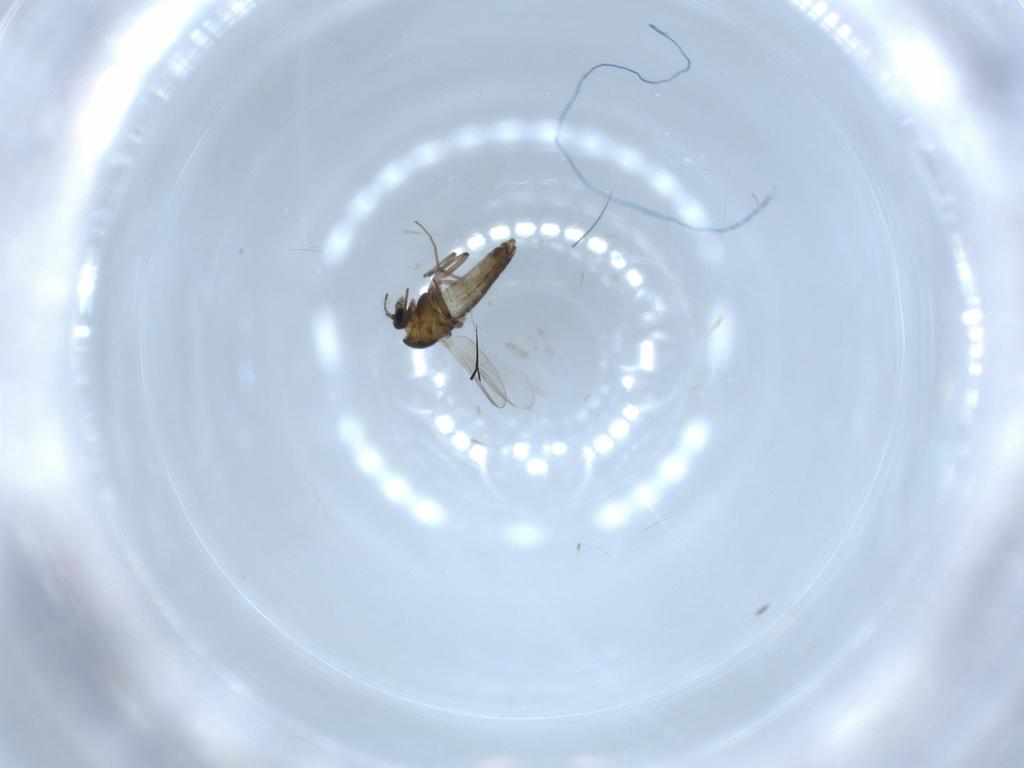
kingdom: Animalia
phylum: Arthropoda
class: Insecta
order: Diptera
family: Chironomidae
